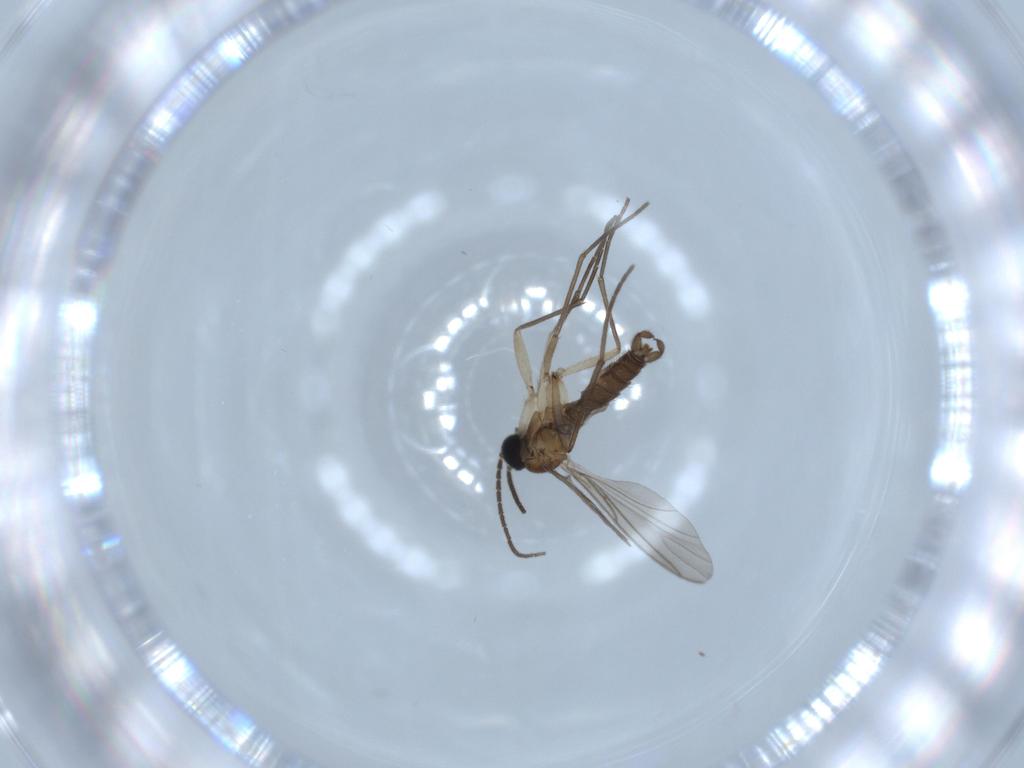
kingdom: Animalia
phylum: Arthropoda
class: Insecta
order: Diptera
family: Sciaridae
